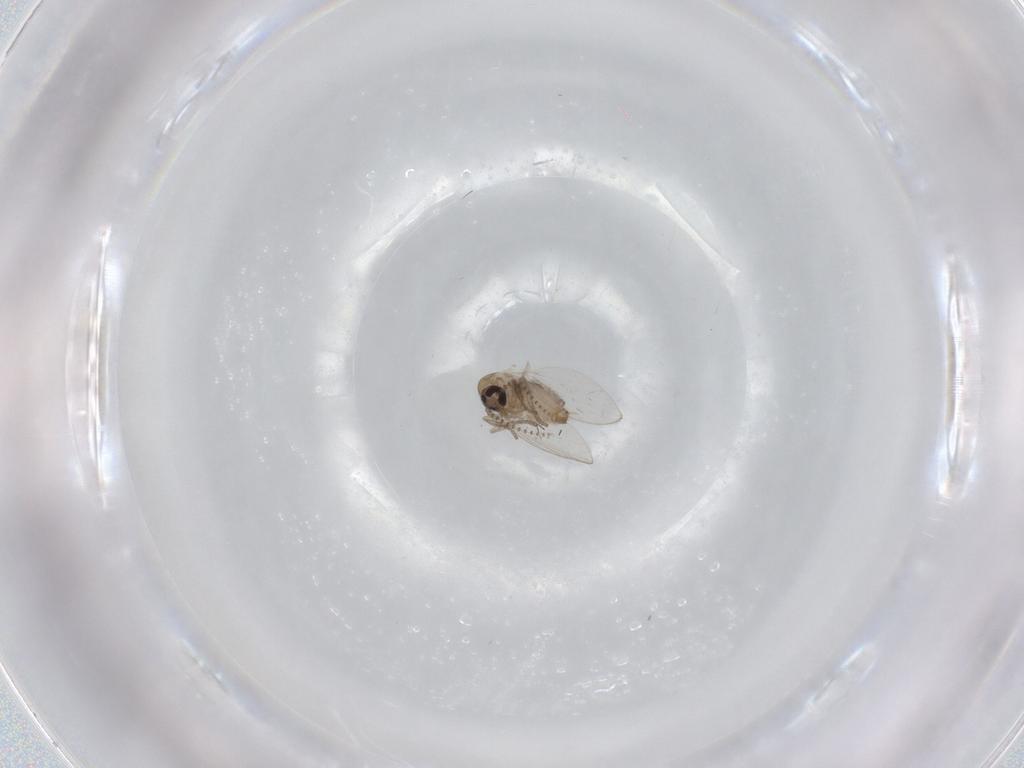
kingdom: Animalia
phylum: Arthropoda
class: Insecta
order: Diptera
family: Psychodidae
